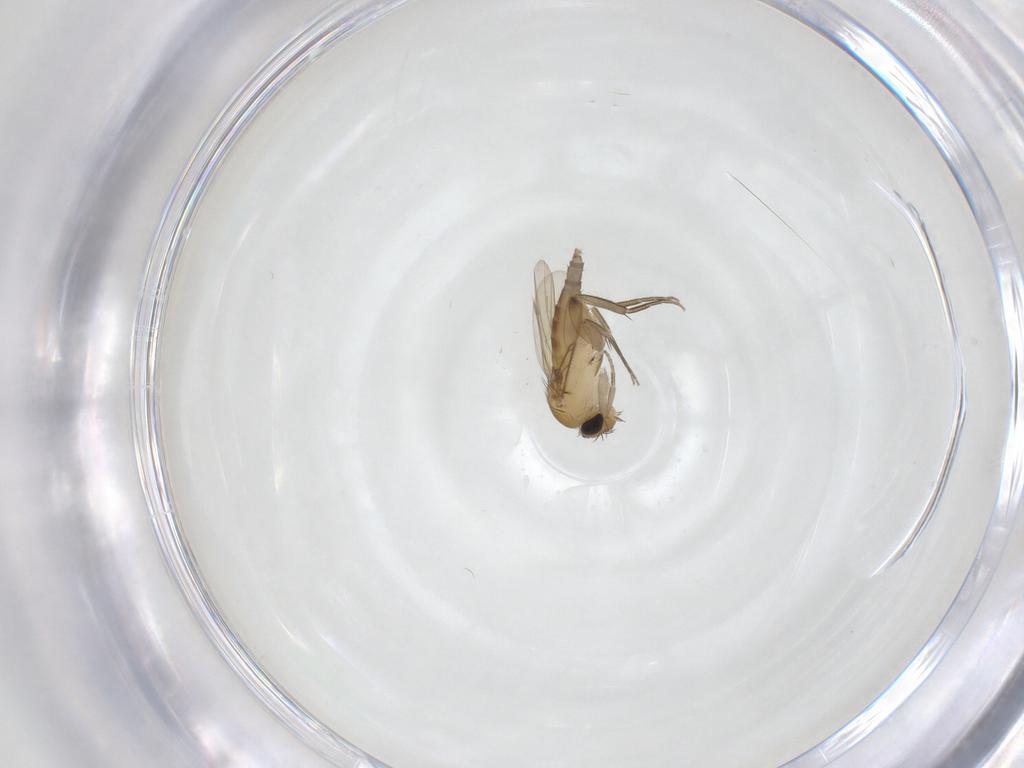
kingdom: Animalia
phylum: Arthropoda
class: Insecta
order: Diptera
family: Phoridae
